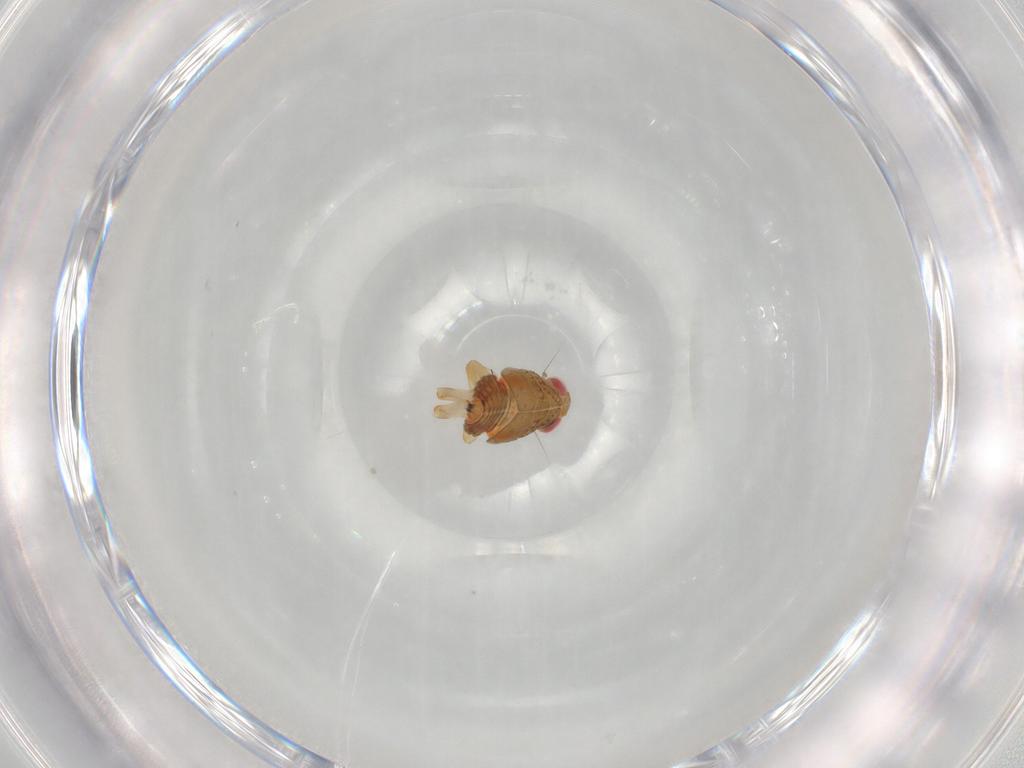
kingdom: Animalia
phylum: Arthropoda
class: Insecta
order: Hemiptera
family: Issidae
